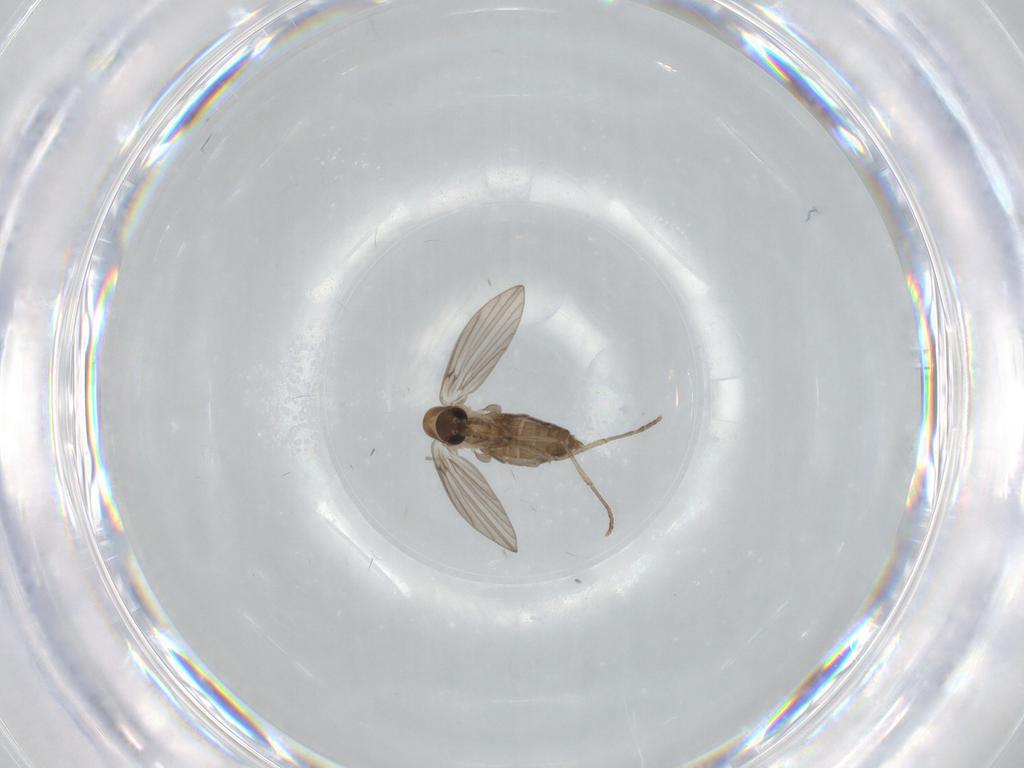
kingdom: Animalia
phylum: Arthropoda
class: Insecta
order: Diptera
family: Psychodidae
